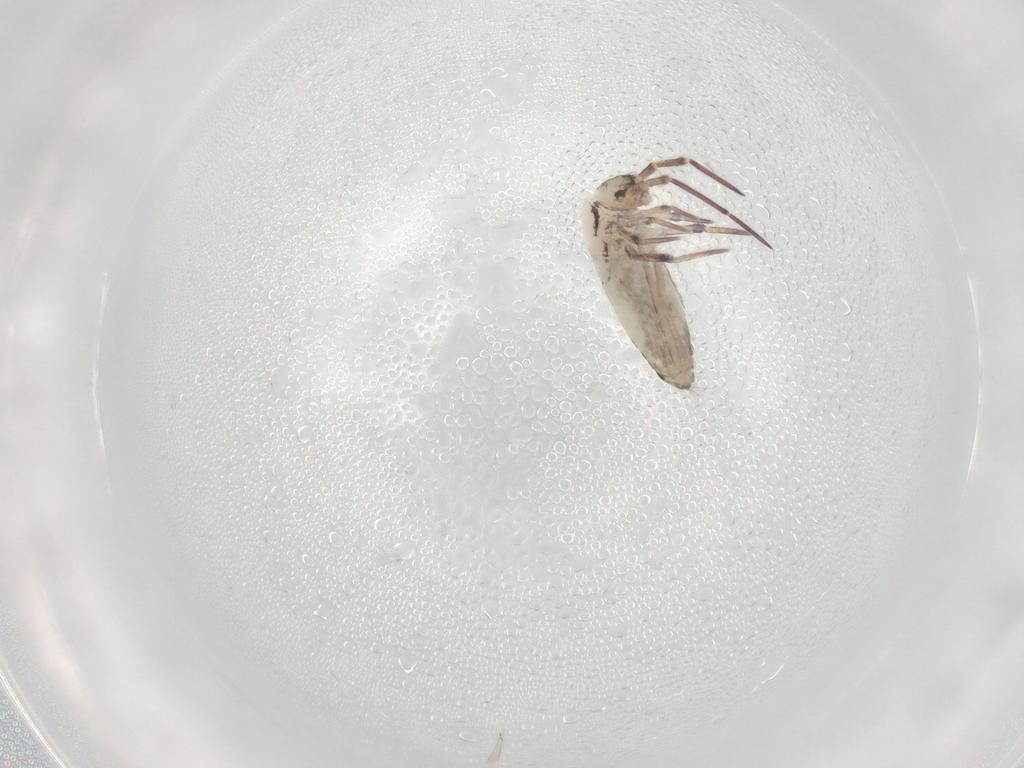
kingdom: Animalia
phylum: Arthropoda
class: Collembola
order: Entomobryomorpha
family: Entomobryidae
